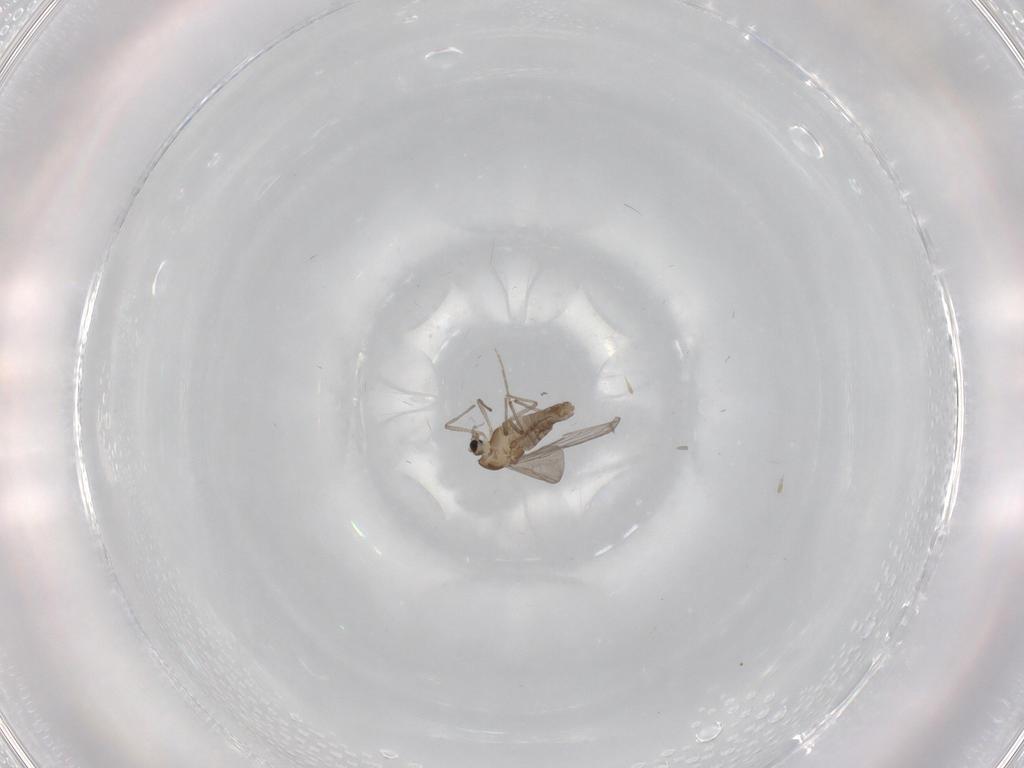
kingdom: Animalia
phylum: Arthropoda
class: Insecta
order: Diptera
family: Chironomidae
